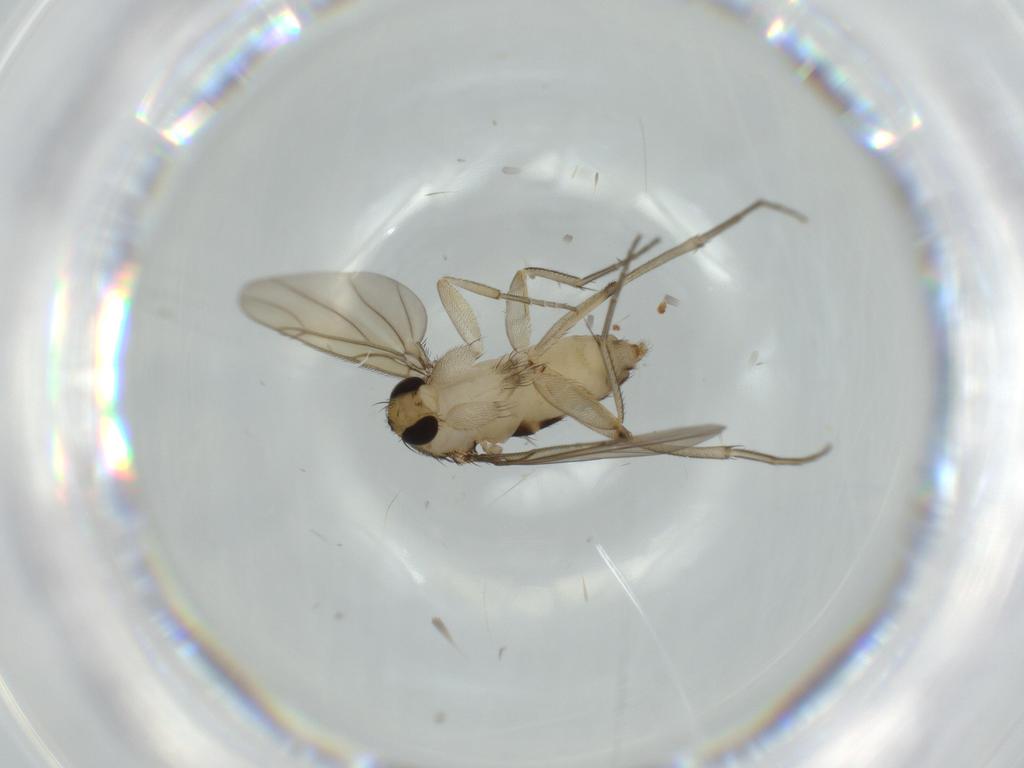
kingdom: Animalia
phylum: Arthropoda
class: Insecta
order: Diptera
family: Phoridae
